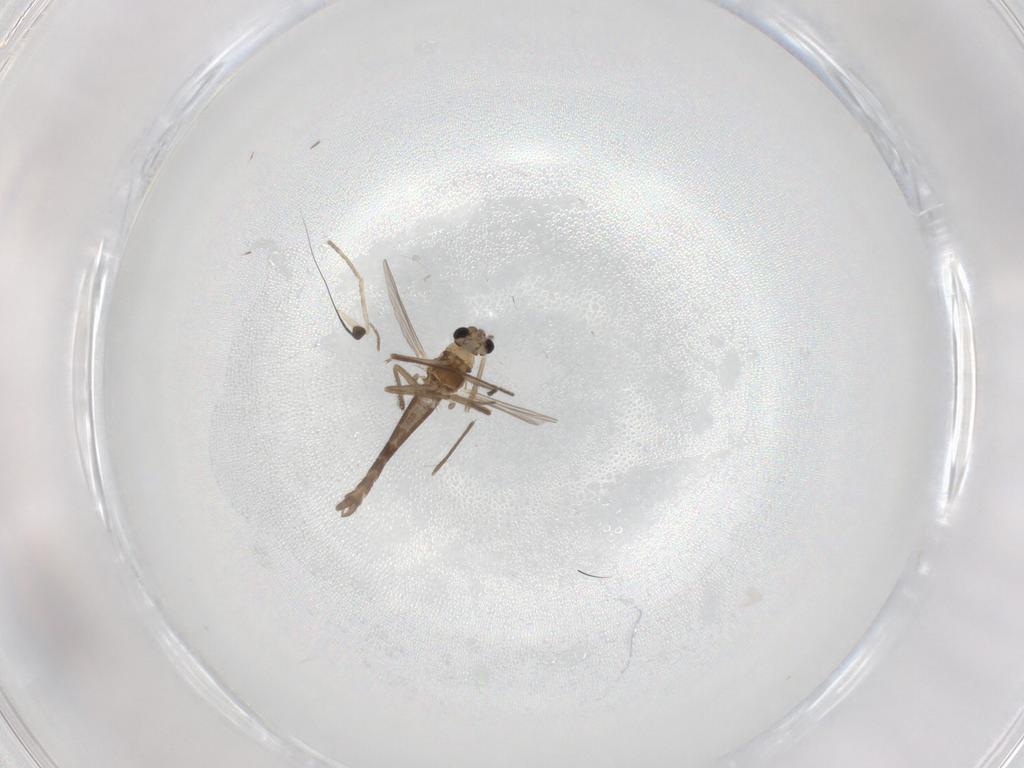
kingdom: Animalia
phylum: Arthropoda
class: Insecta
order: Diptera
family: Chironomidae
